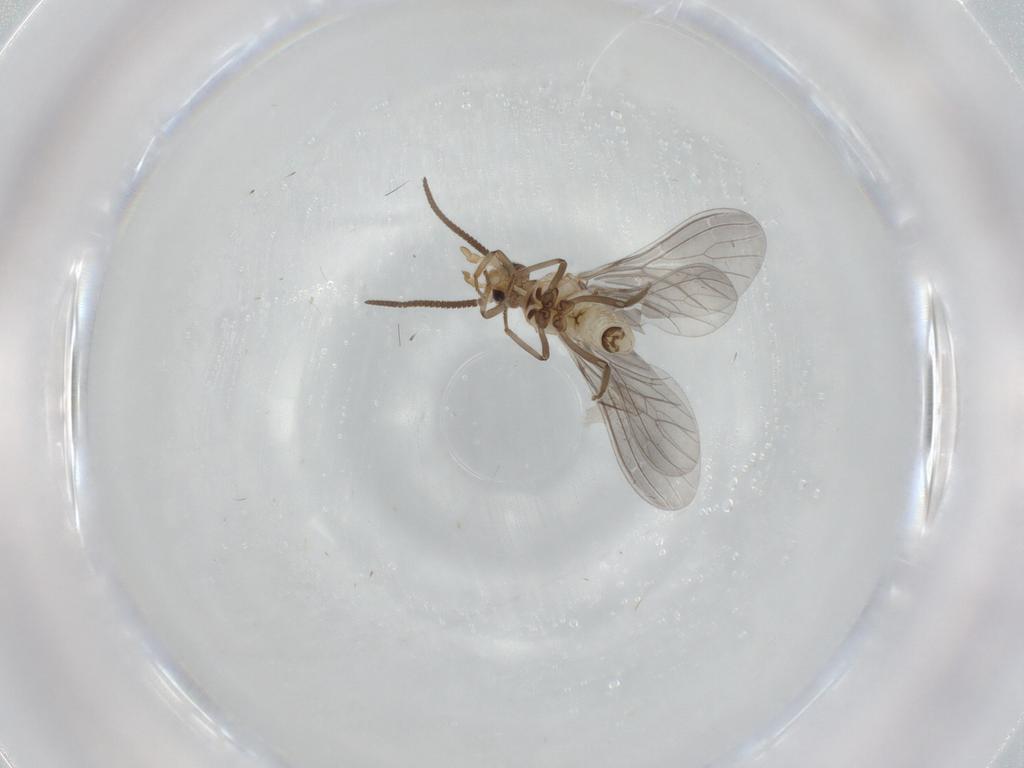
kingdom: Animalia
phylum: Arthropoda
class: Insecta
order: Neuroptera
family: Coniopterygidae
